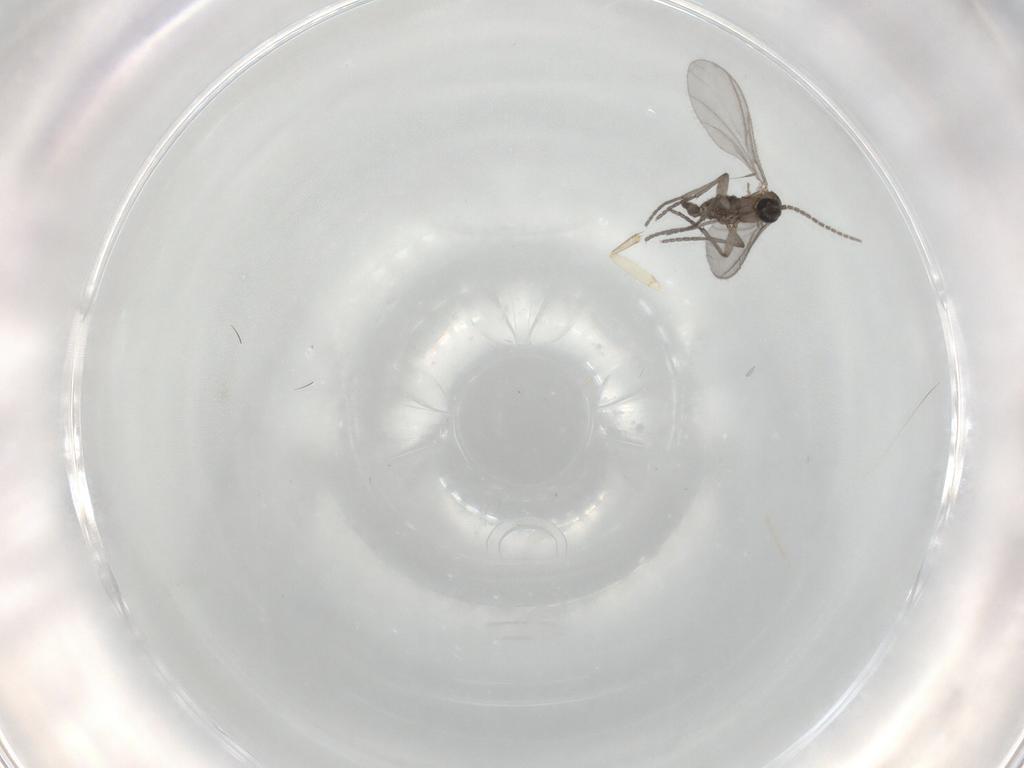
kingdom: Animalia
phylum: Arthropoda
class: Insecta
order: Diptera
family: Sciaridae
